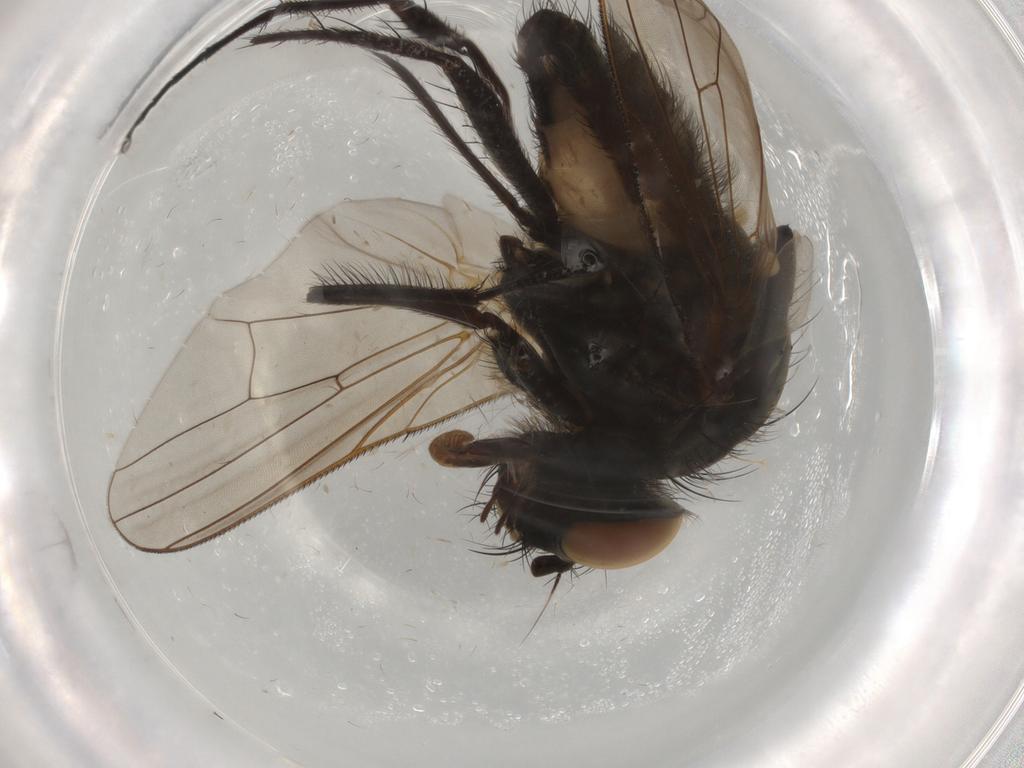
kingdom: Animalia
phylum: Arthropoda
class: Insecta
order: Diptera
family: Anthomyiidae
